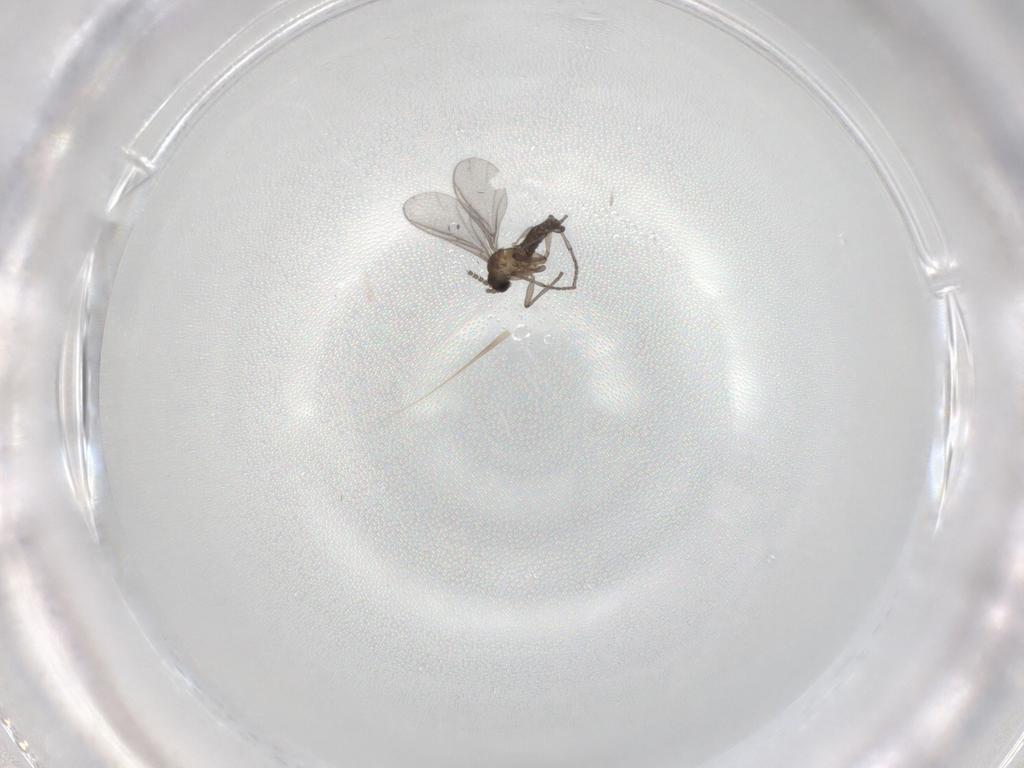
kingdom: Animalia
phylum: Arthropoda
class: Insecta
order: Diptera
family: Sciaridae
